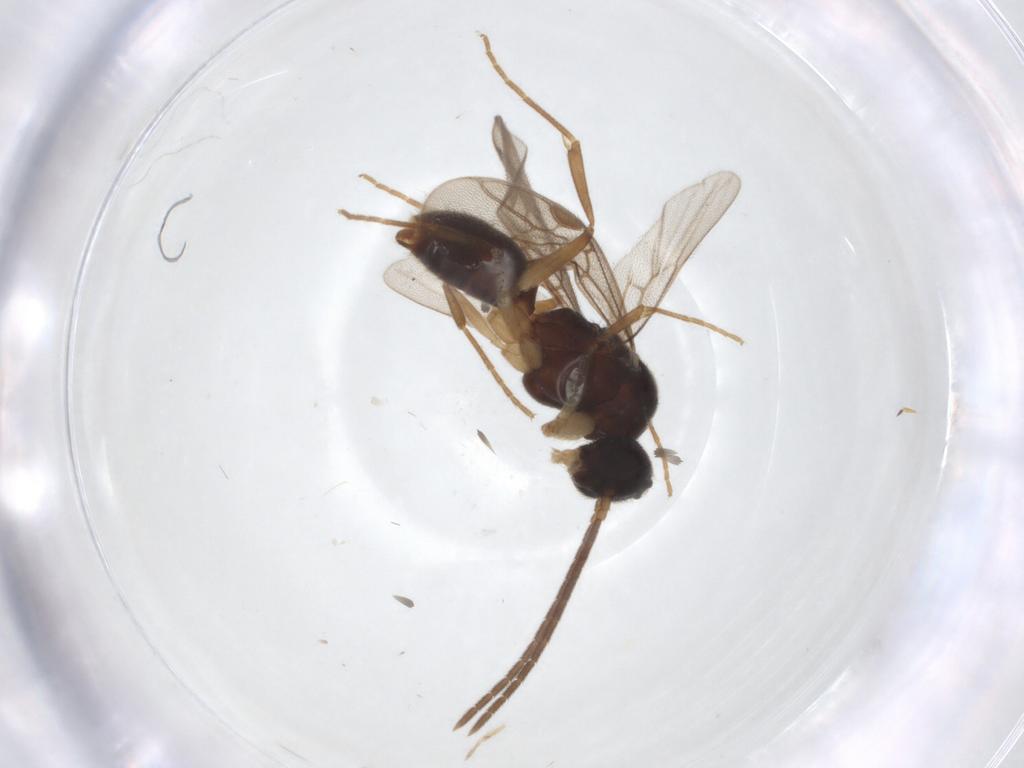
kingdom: Animalia
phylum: Arthropoda
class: Insecta
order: Hymenoptera
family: Formicidae
